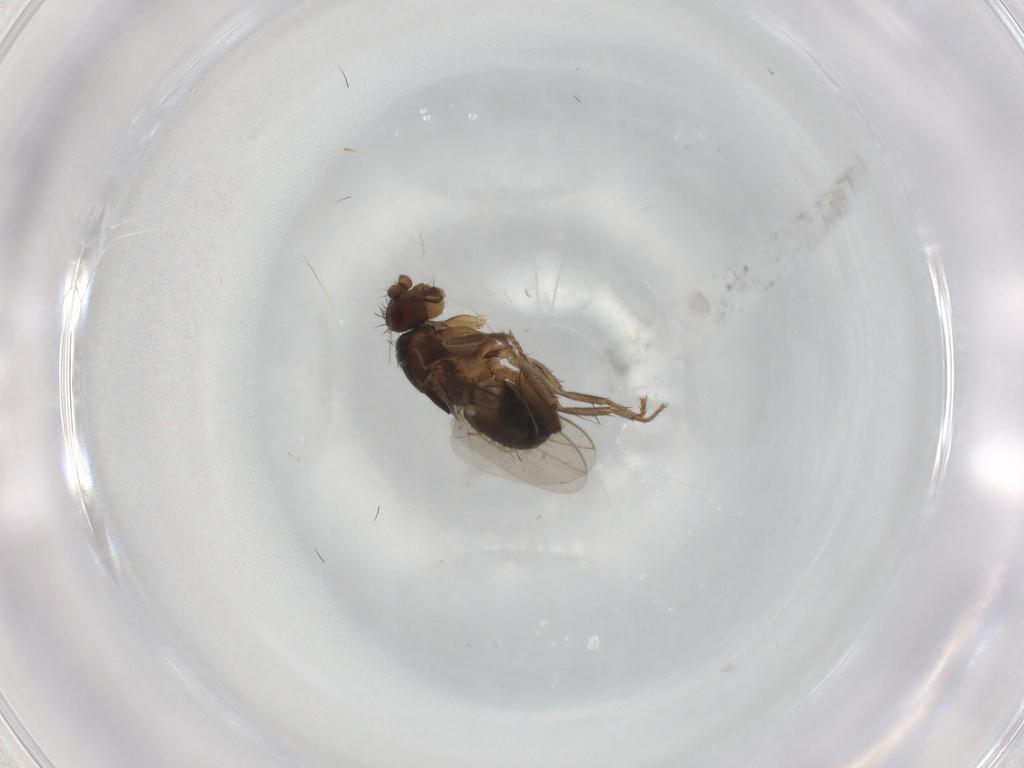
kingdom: Animalia
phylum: Arthropoda
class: Insecta
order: Diptera
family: Sphaeroceridae
